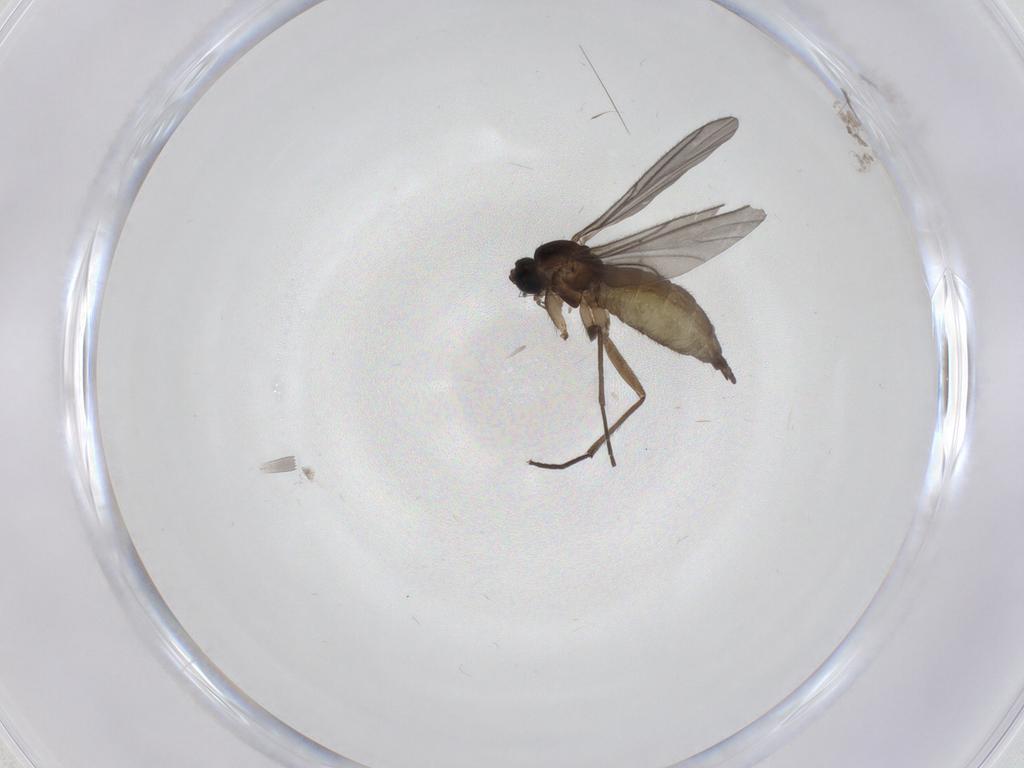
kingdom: Animalia
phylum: Arthropoda
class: Insecta
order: Diptera
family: Sciaridae
